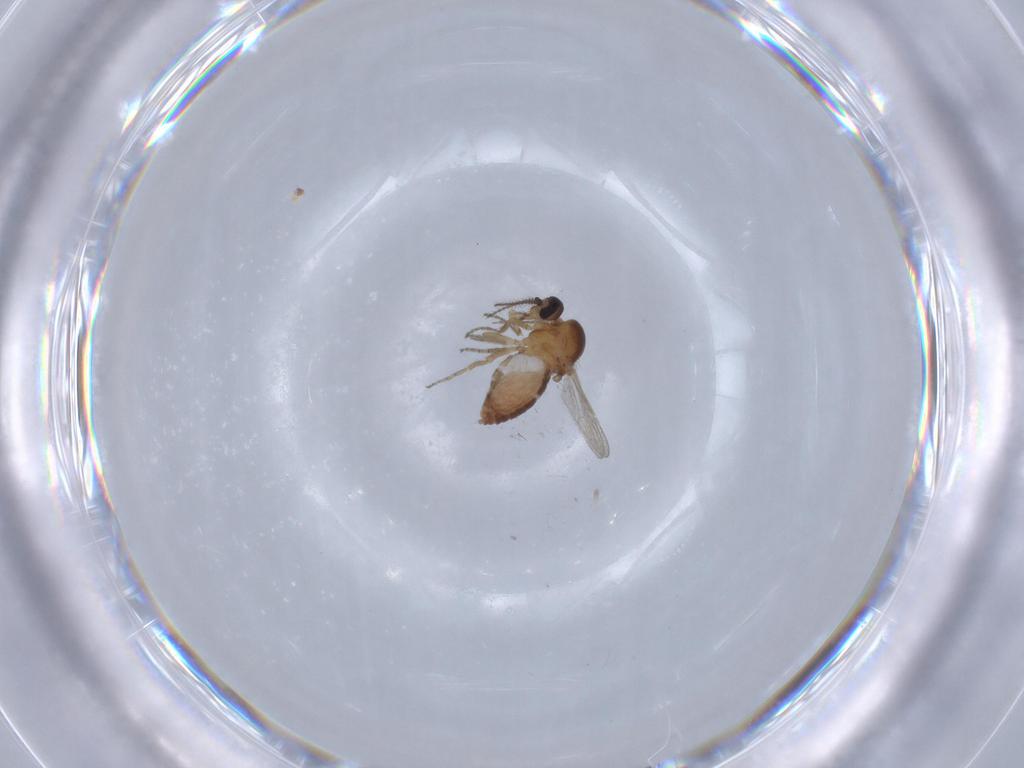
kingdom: Animalia
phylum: Arthropoda
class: Insecta
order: Diptera
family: Ceratopogonidae
